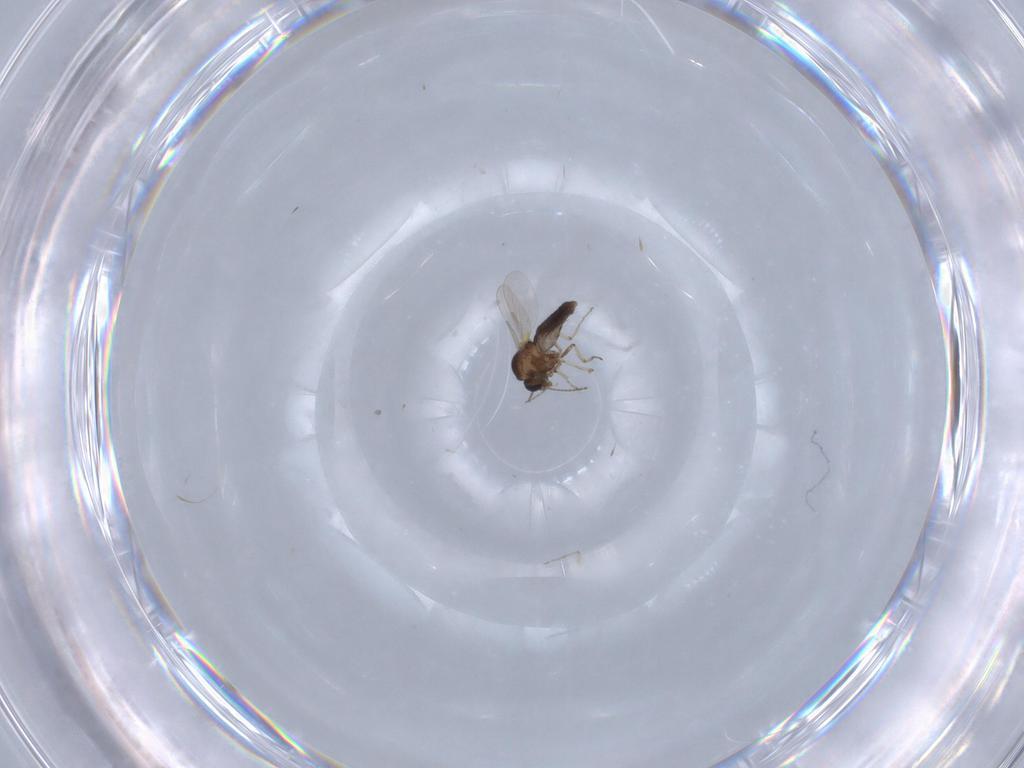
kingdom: Animalia
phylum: Arthropoda
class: Insecta
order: Diptera
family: Ceratopogonidae
